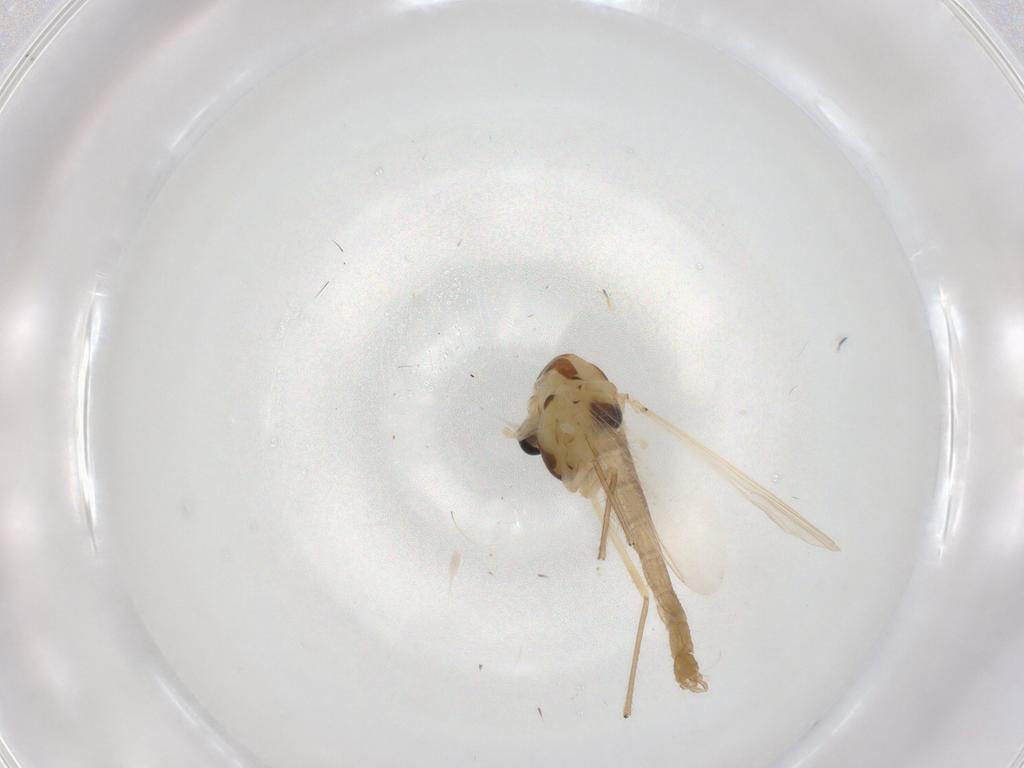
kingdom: Animalia
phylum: Arthropoda
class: Insecta
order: Diptera
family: Chironomidae
